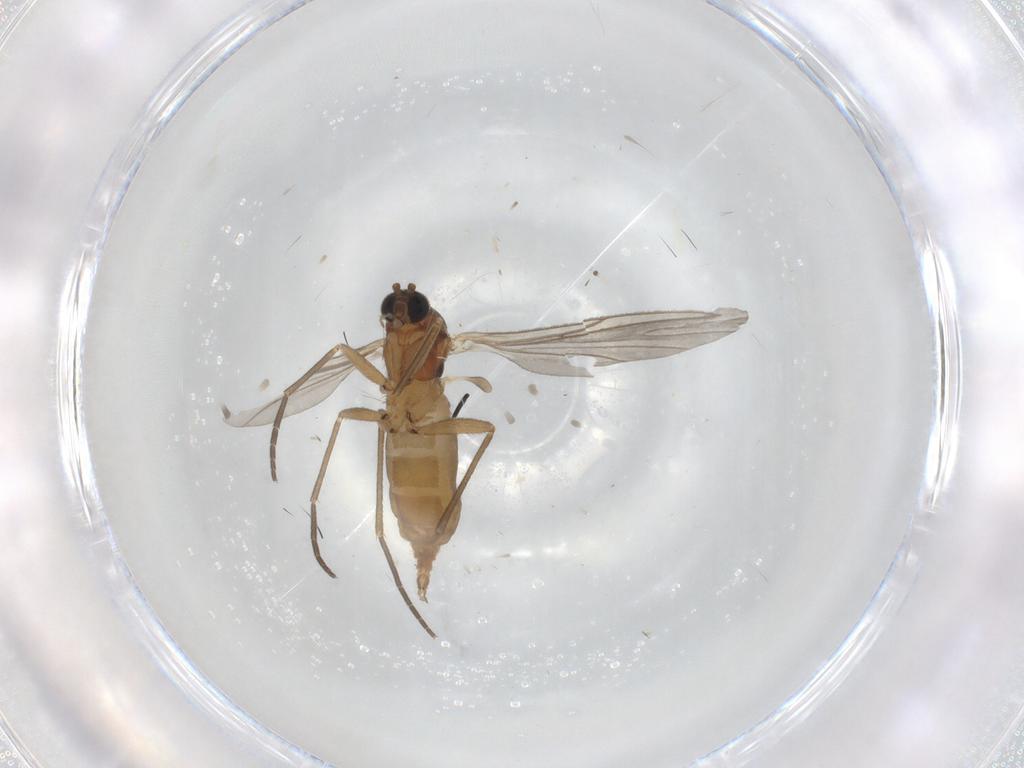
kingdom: Animalia
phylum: Arthropoda
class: Insecta
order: Diptera
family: Sciaridae
